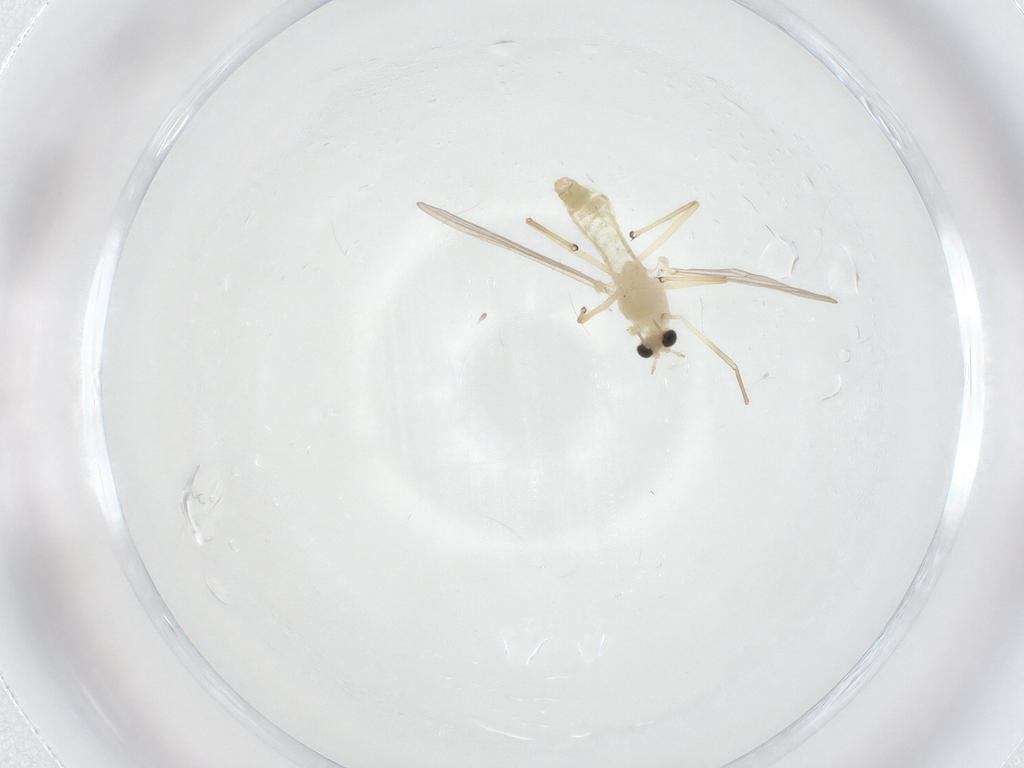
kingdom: Animalia
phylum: Arthropoda
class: Insecta
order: Diptera
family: Chironomidae
